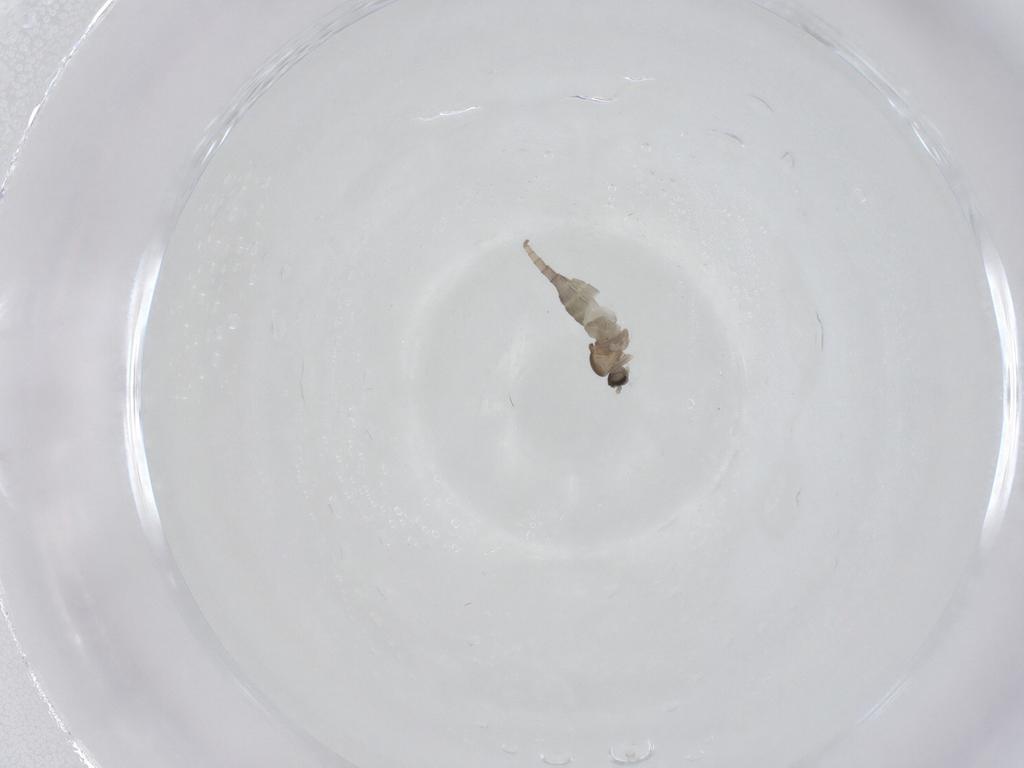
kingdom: Animalia
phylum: Arthropoda
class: Insecta
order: Diptera
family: Cecidomyiidae
